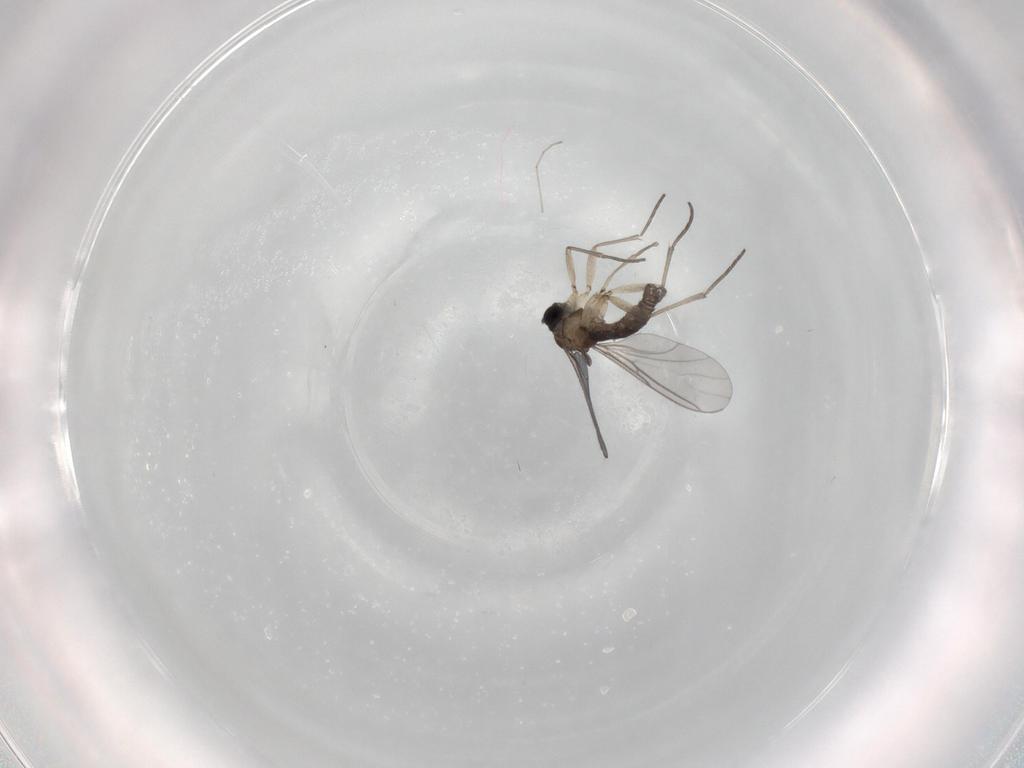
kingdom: Animalia
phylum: Arthropoda
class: Insecta
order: Diptera
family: Sciaridae
